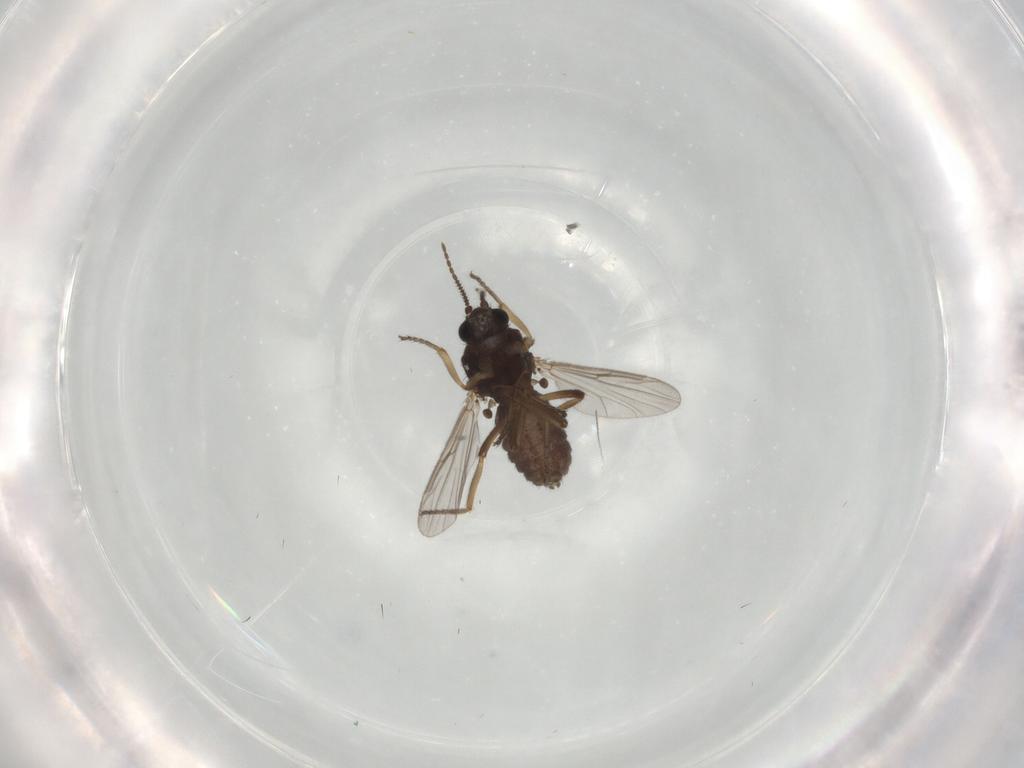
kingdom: Animalia
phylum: Arthropoda
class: Insecta
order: Diptera
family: Ceratopogonidae
